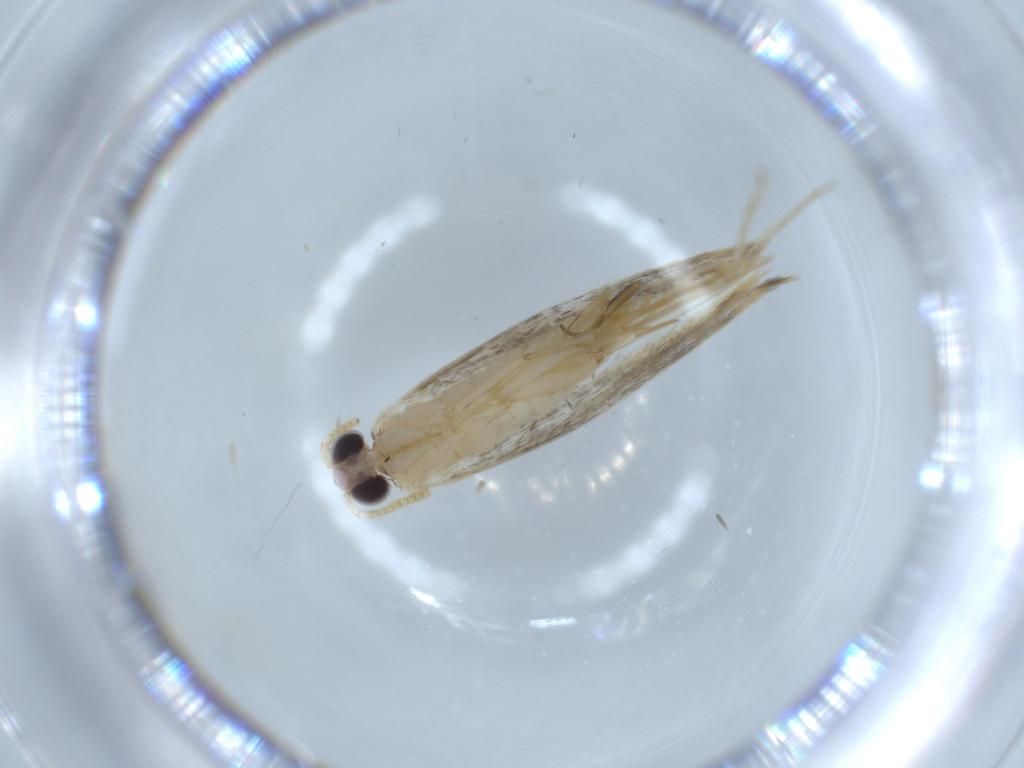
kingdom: Animalia
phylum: Arthropoda
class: Insecta
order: Lepidoptera
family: Tineidae
